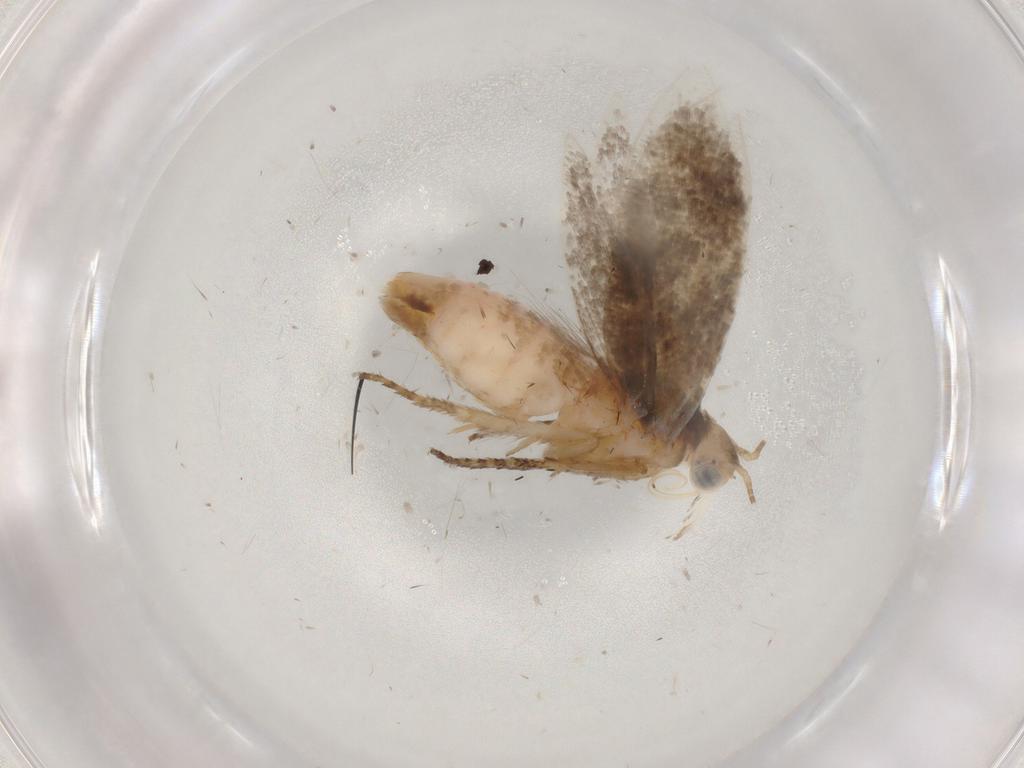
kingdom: Animalia
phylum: Arthropoda
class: Insecta
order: Lepidoptera
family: Plutellidae
